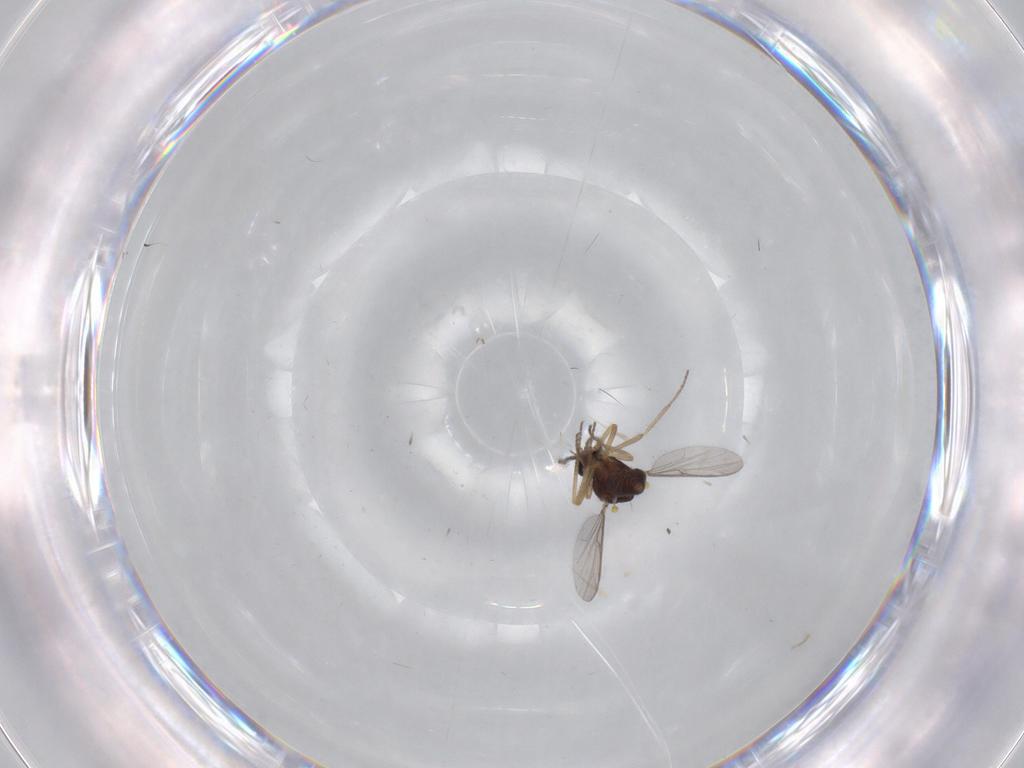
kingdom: Animalia
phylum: Arthropoda
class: Insecta
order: Diptera
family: Ceratopogonidae
